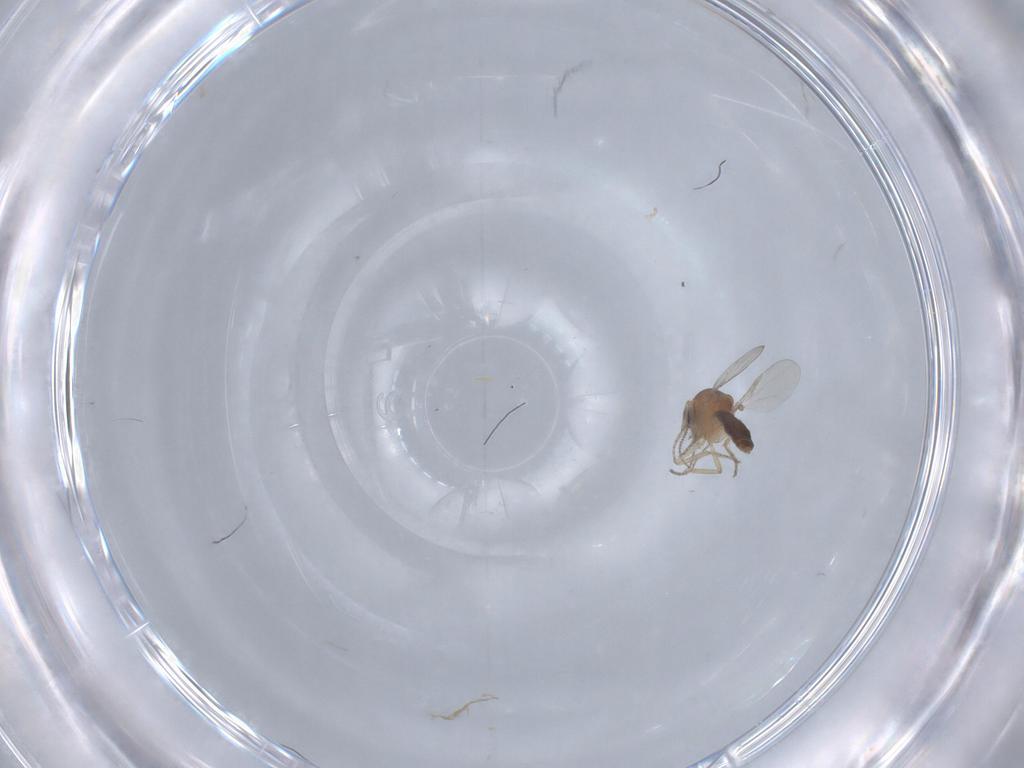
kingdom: Animalia
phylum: Arthropoda
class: Insecta
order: Diptera
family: Ceratopogonidae
